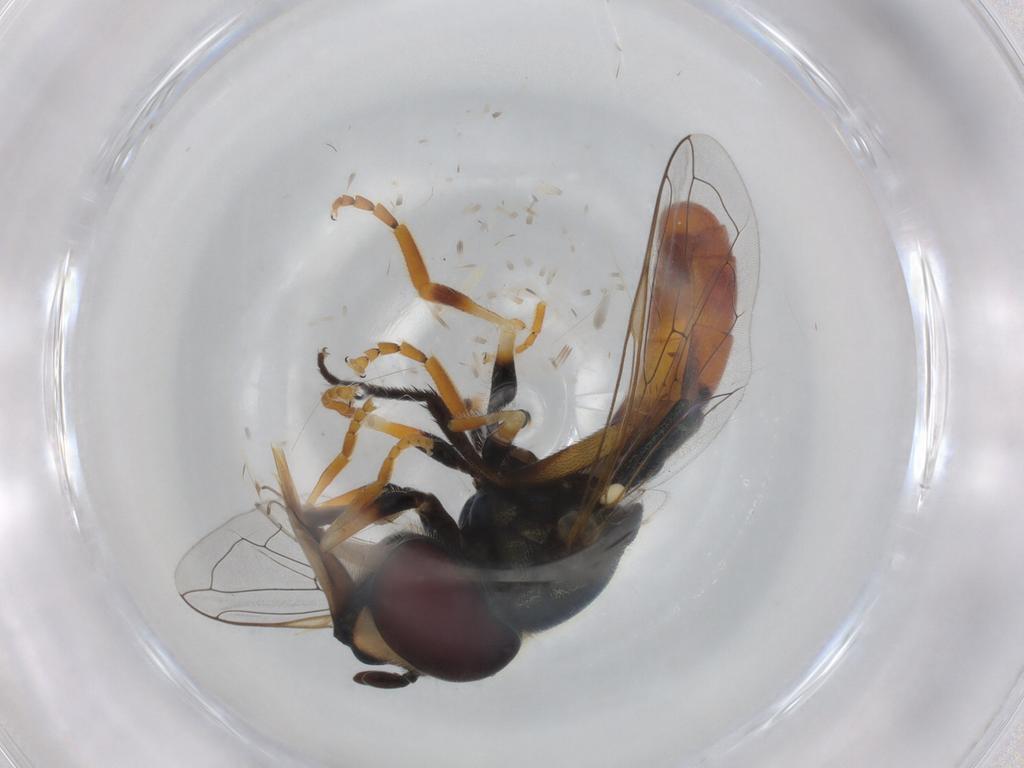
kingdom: Animalia
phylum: Arthropoda
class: Insecta
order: Diptera
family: Syrphidae
